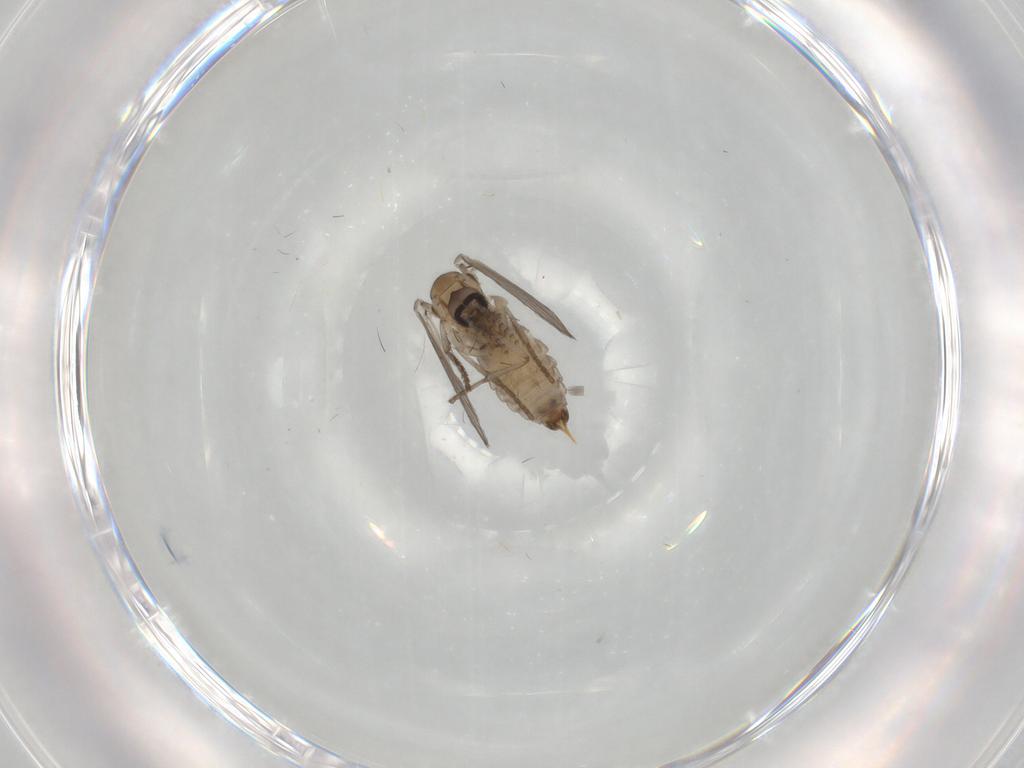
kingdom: Animalia
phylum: Arthropoda
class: Insecta
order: Diptera
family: Psychodidae
